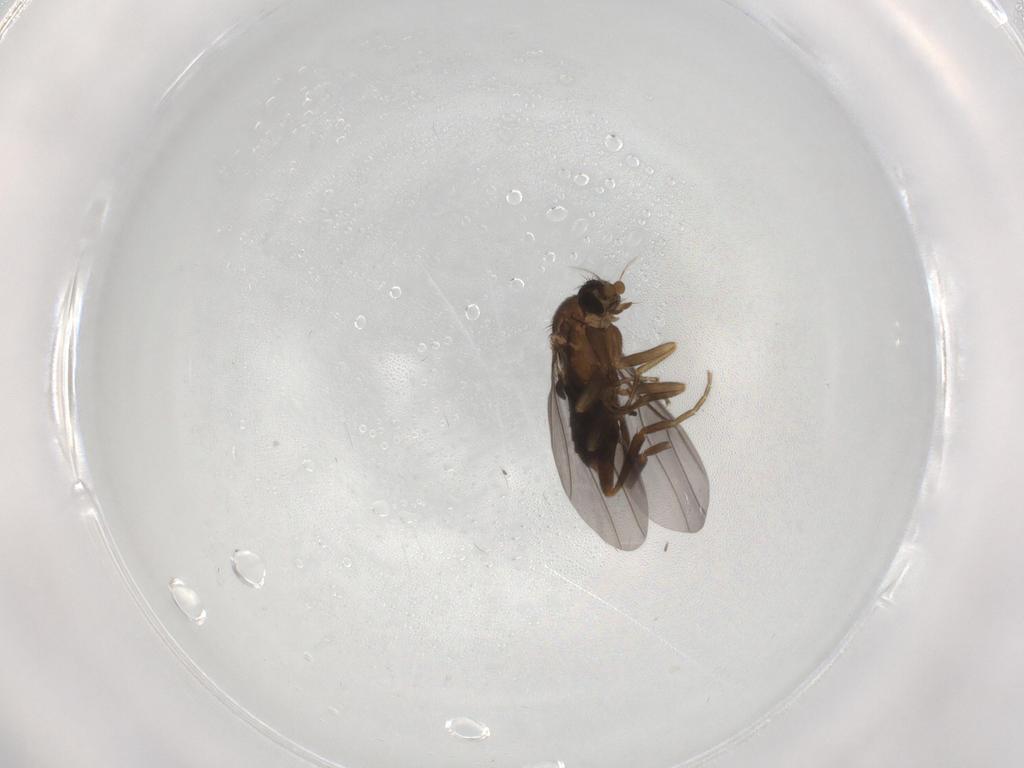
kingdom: Animalia
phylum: Arthropoda
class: Insecta
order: Diptera
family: Phoridae
